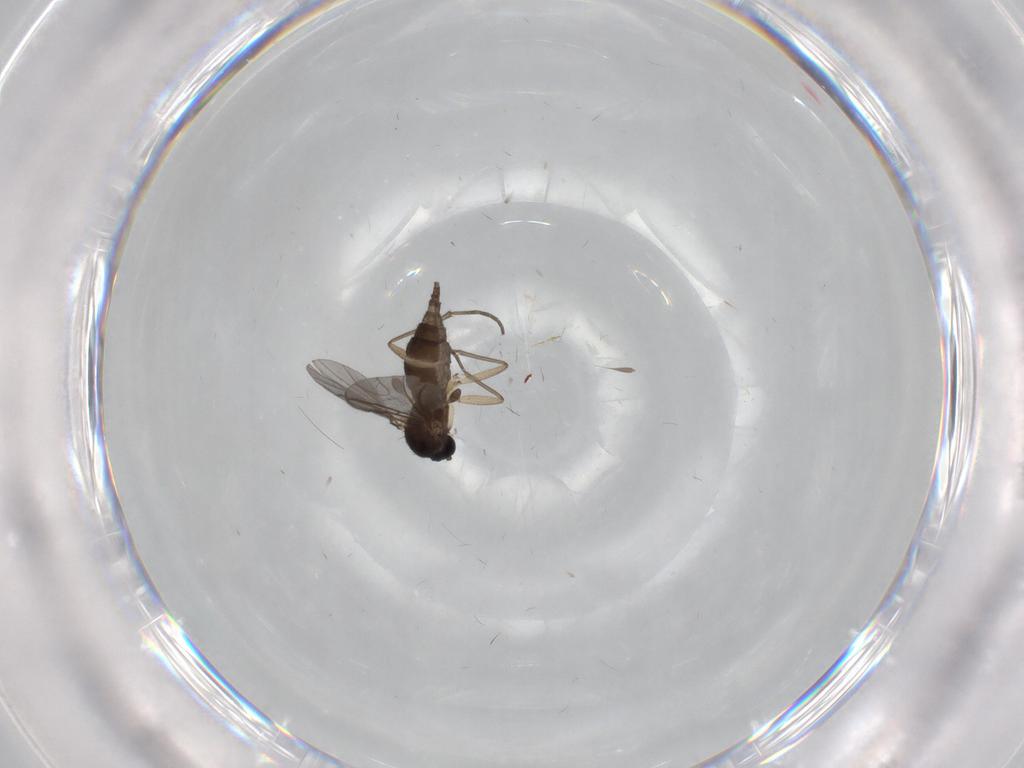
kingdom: Animalia
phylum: Arthropoda
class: Insecta
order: Diptera
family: Sciaridae
